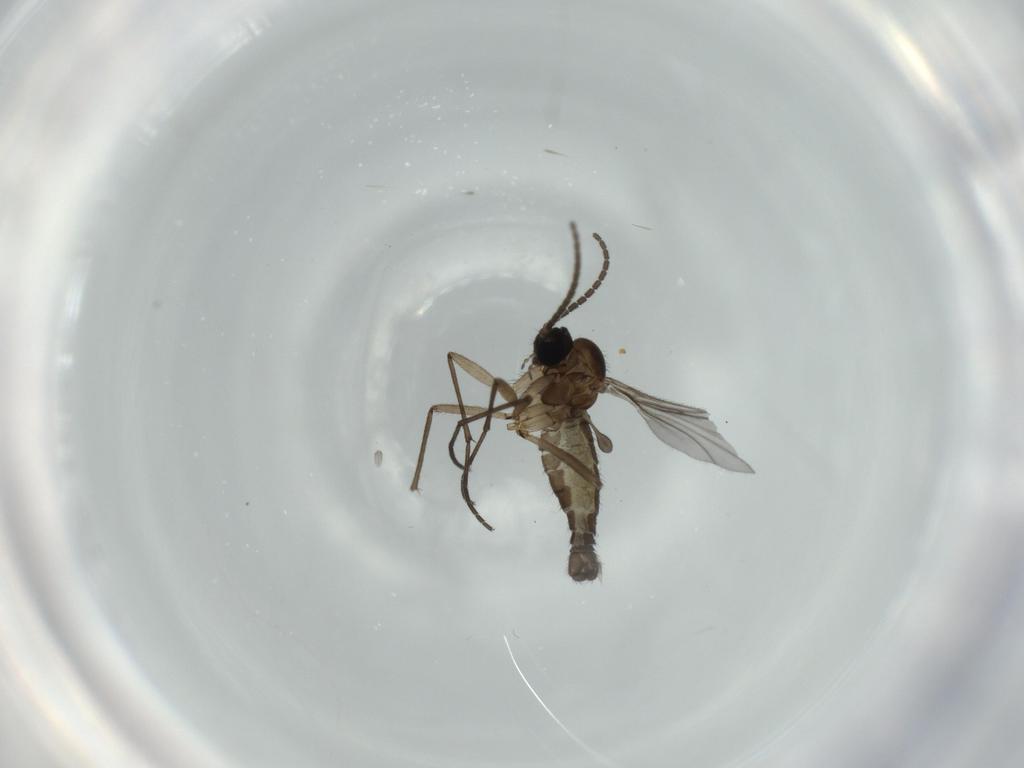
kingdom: Animalia
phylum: Arthropoda
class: Insecta
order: Diptera
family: Sciaridae
